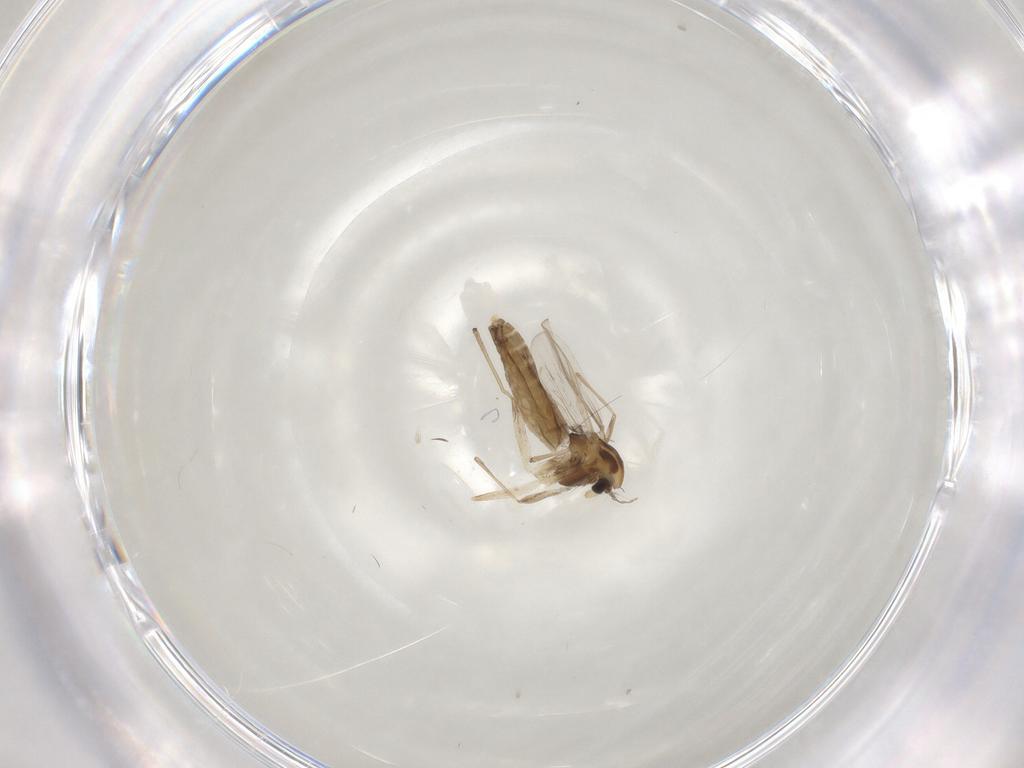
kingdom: Animalia
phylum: Arthropoda
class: Insecta
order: Diptera
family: Chironomidae
